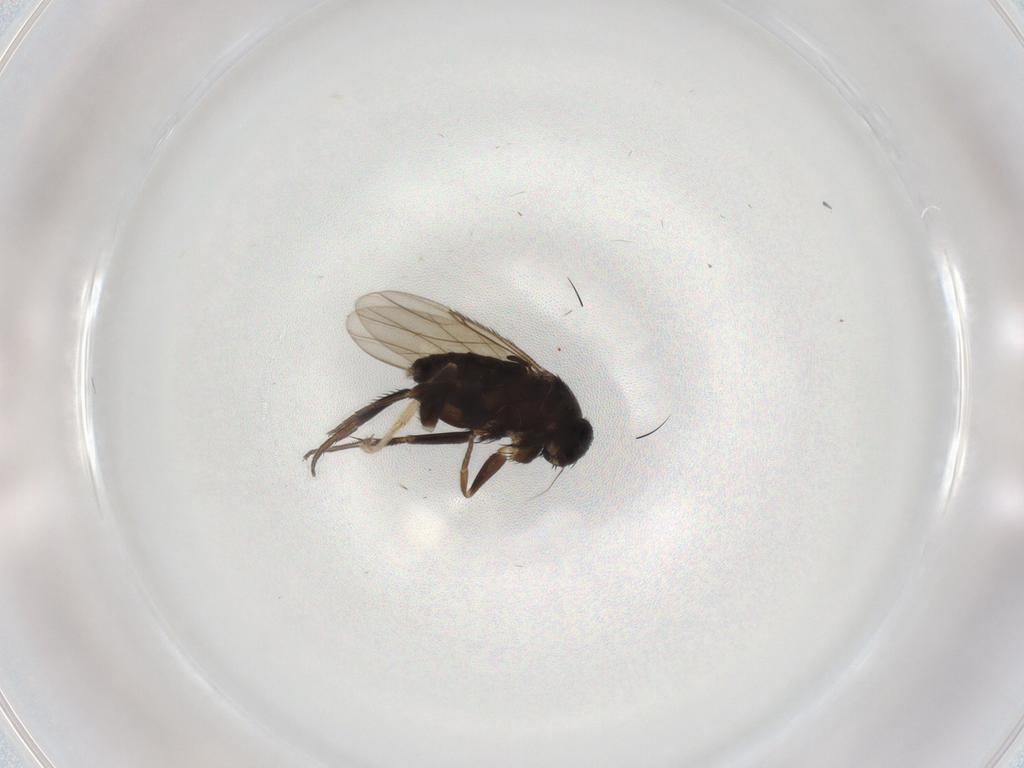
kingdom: Animalia
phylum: Arthropoda
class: Insecta
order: Diptera
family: Phoridae
